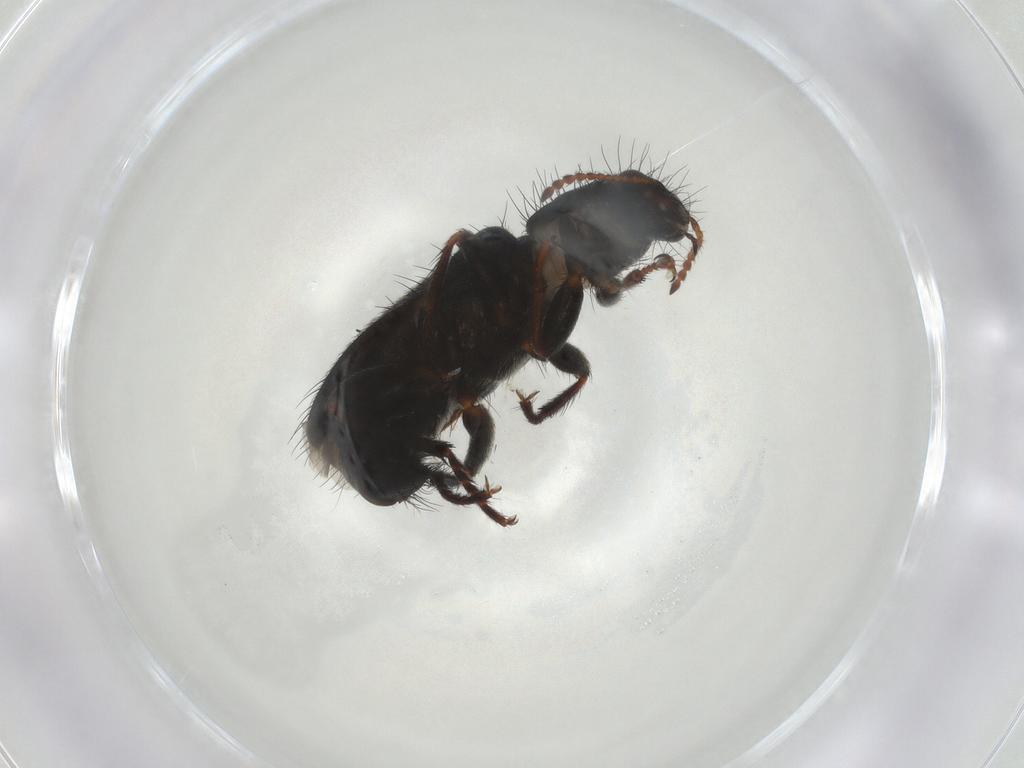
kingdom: Animalia
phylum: Arthropoda
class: Insecta
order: Coleoptera
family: Melyridae
